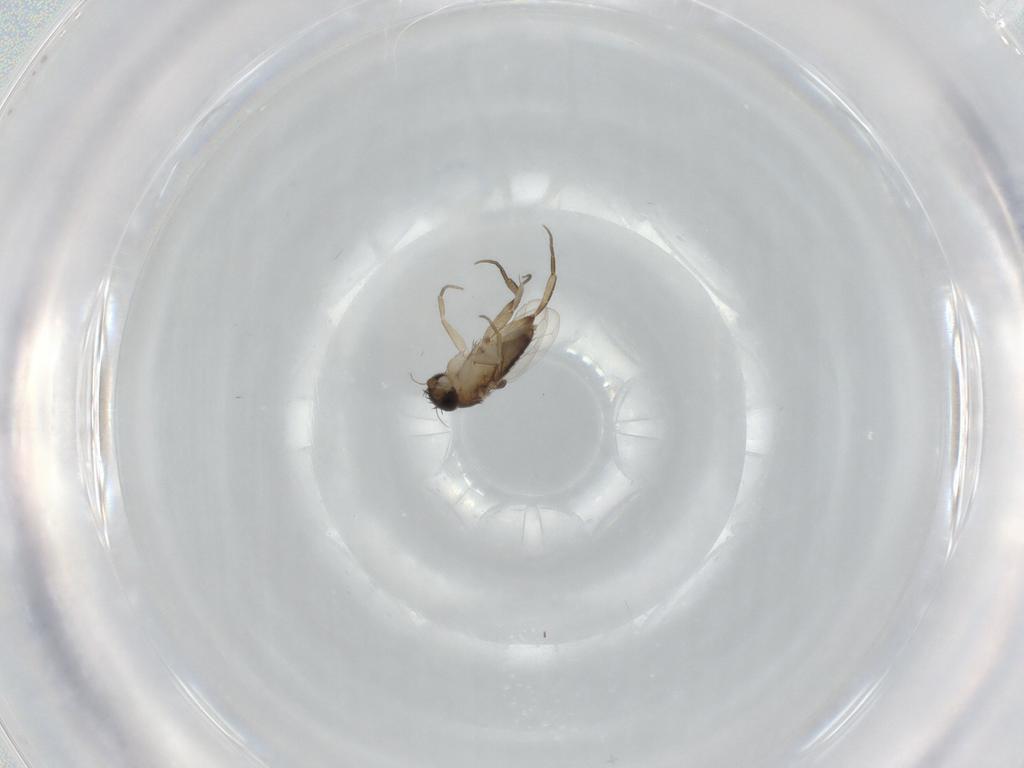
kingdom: Animalia
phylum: Arthropoda
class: Insecta
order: Diptera
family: Phoridae
